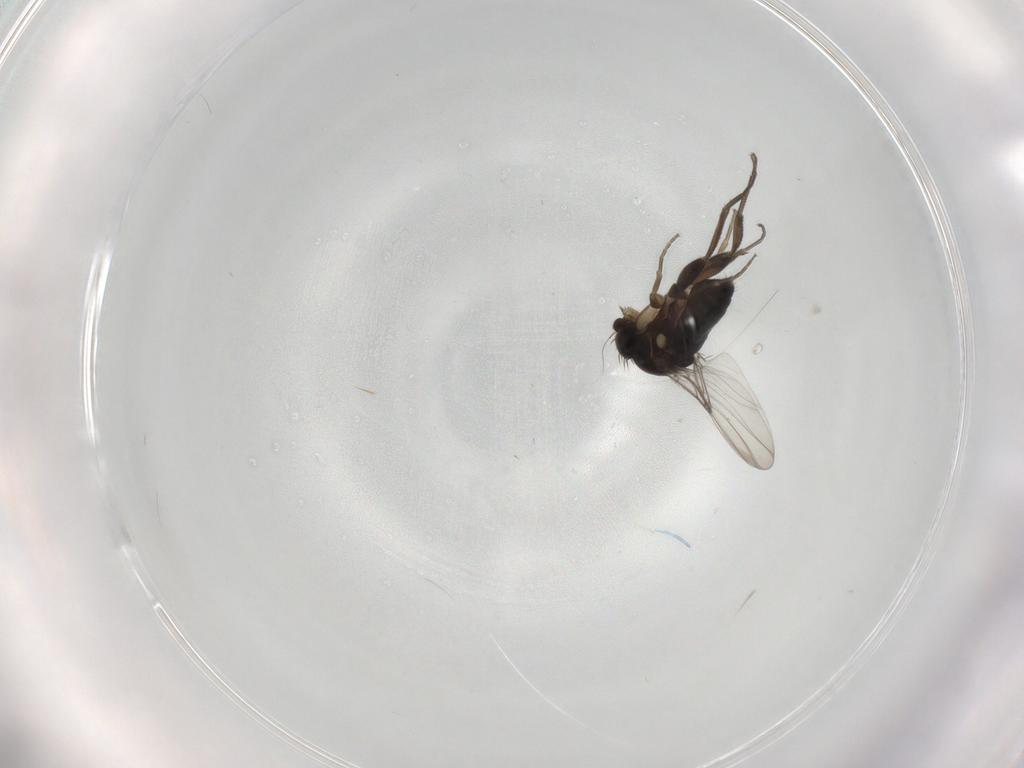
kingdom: Animalia
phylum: Arthropoda
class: Insecta
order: Diptera
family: Phoridae
